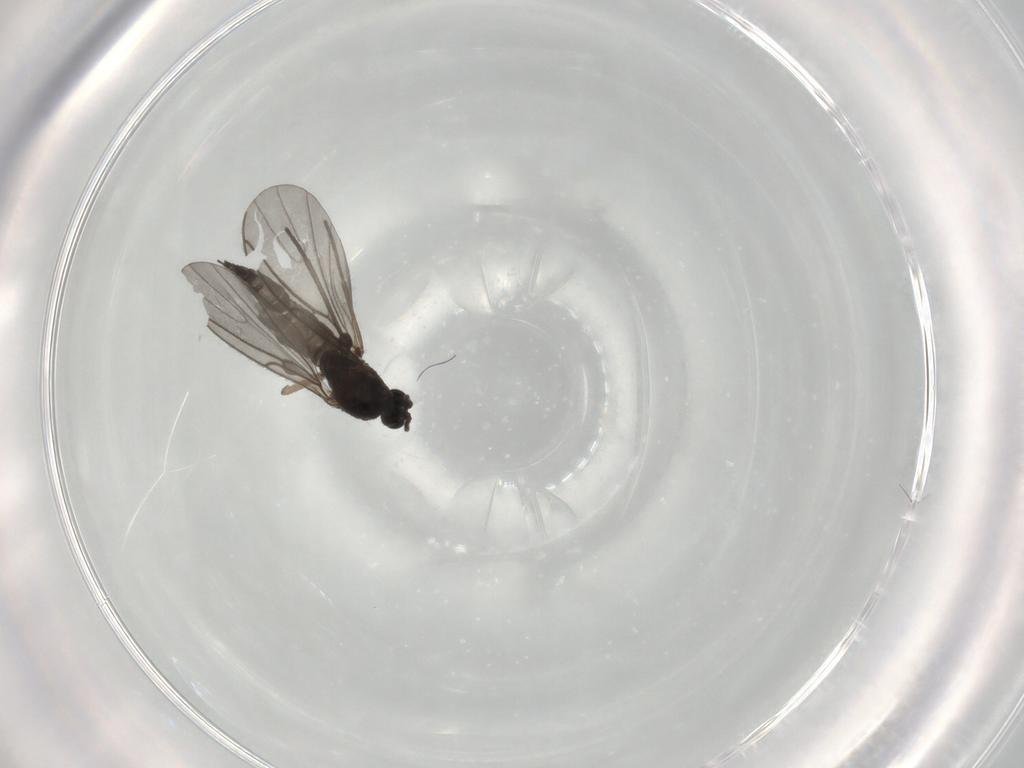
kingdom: Animalia
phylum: Arthropoda
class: Insecta
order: Diptera
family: Sciaridae
